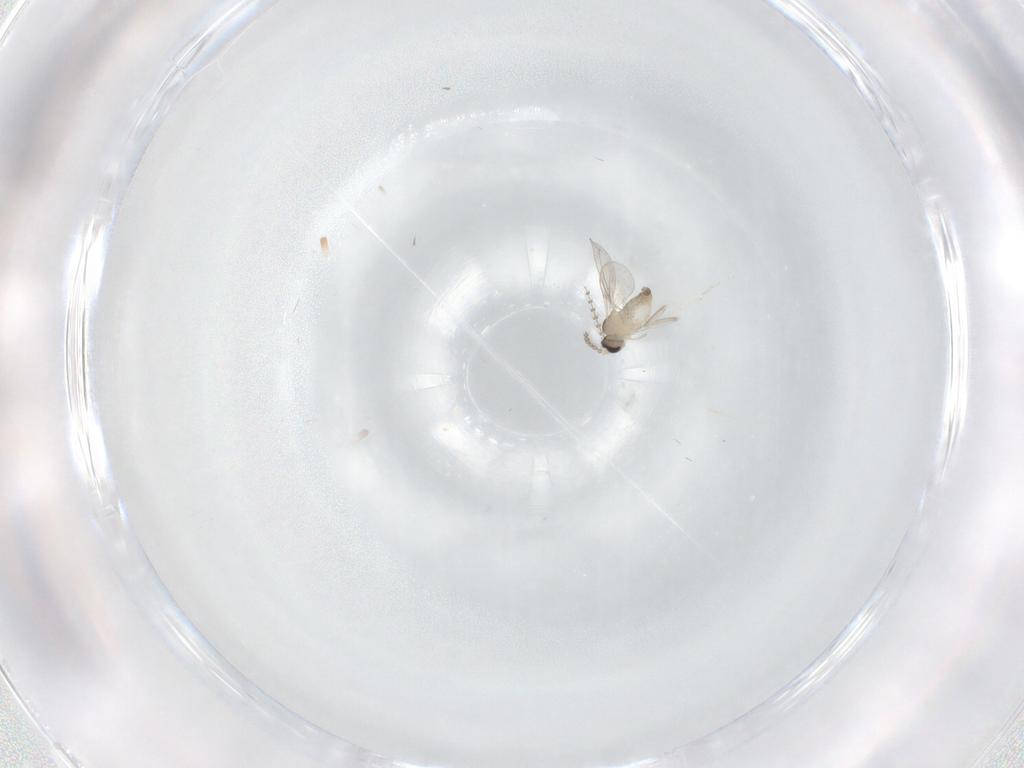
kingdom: Animalia
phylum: Arthropoda
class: Insecta
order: Diptera
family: Cecidomyiidae
